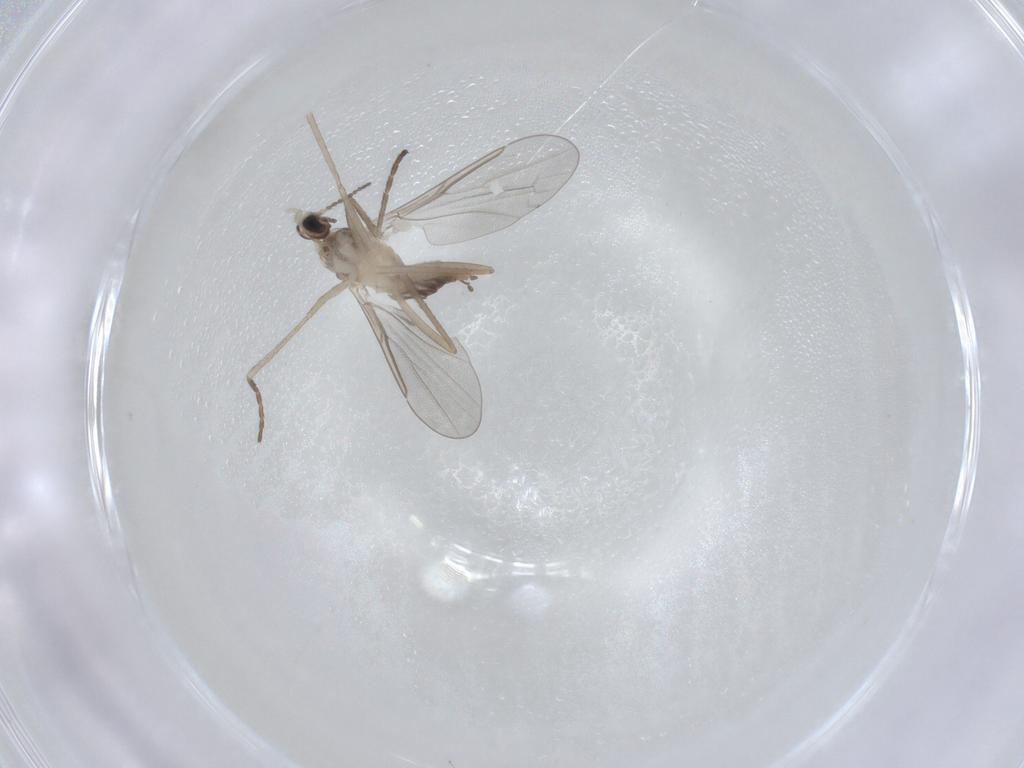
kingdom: Animalia
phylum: Arthropoda
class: Insecta
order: Diptera
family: Cecidomyiidae
